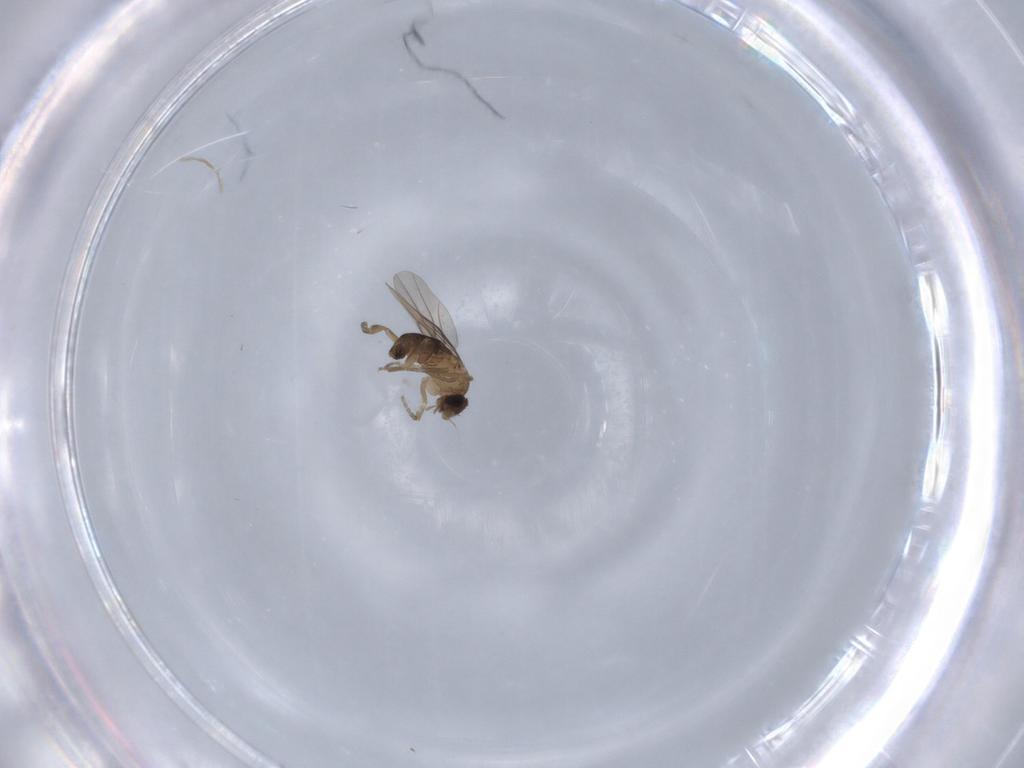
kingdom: Animalia
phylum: Arthropoda
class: Insecta
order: Diptera
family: Phoridae
